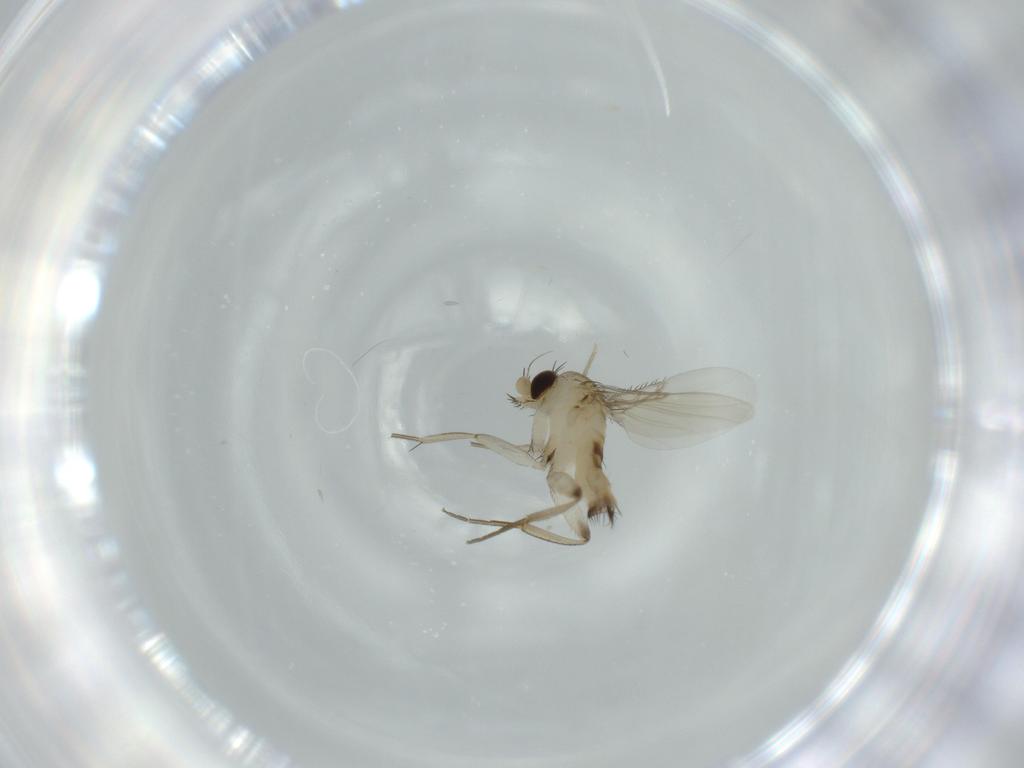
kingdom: Animalia
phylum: Arthropoda
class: Insecta
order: Diptera
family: Phoridae
